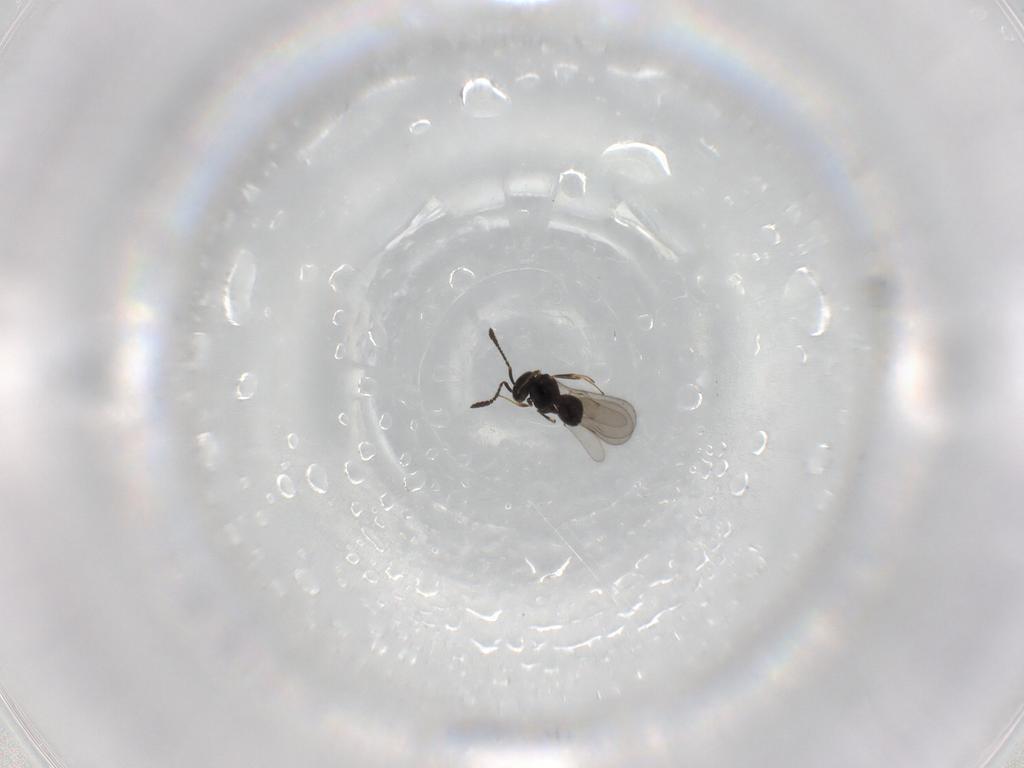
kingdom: Animalia
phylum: Arthropoda
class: Insecta
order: Hymenoptera
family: Scelionidae
